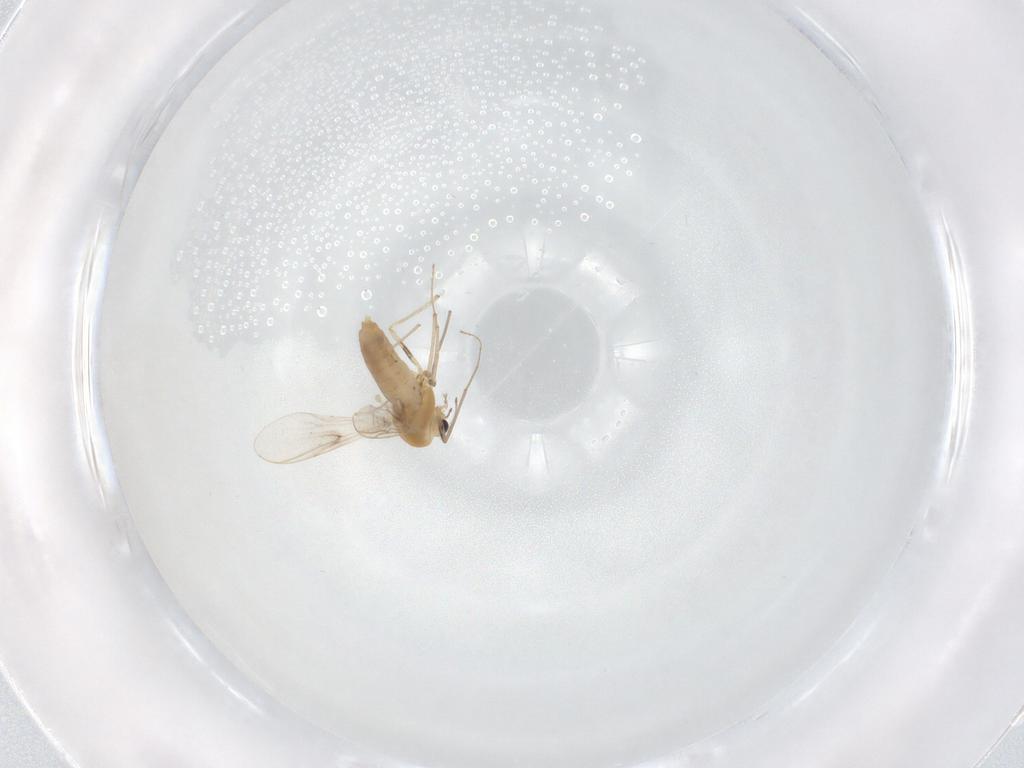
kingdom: Animalia
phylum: Arthropoda
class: Insecta
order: Diptera
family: Chironomidae
